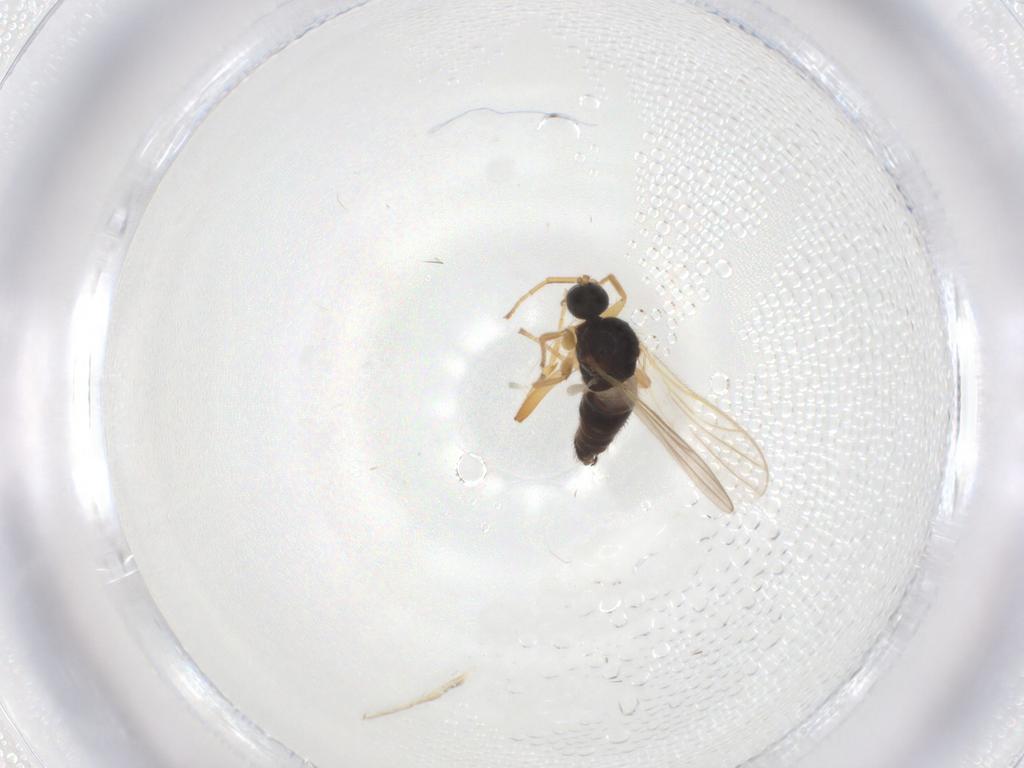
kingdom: Animalia
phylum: Arthropoda
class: Insecta
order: Diptera
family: Hybotidae
